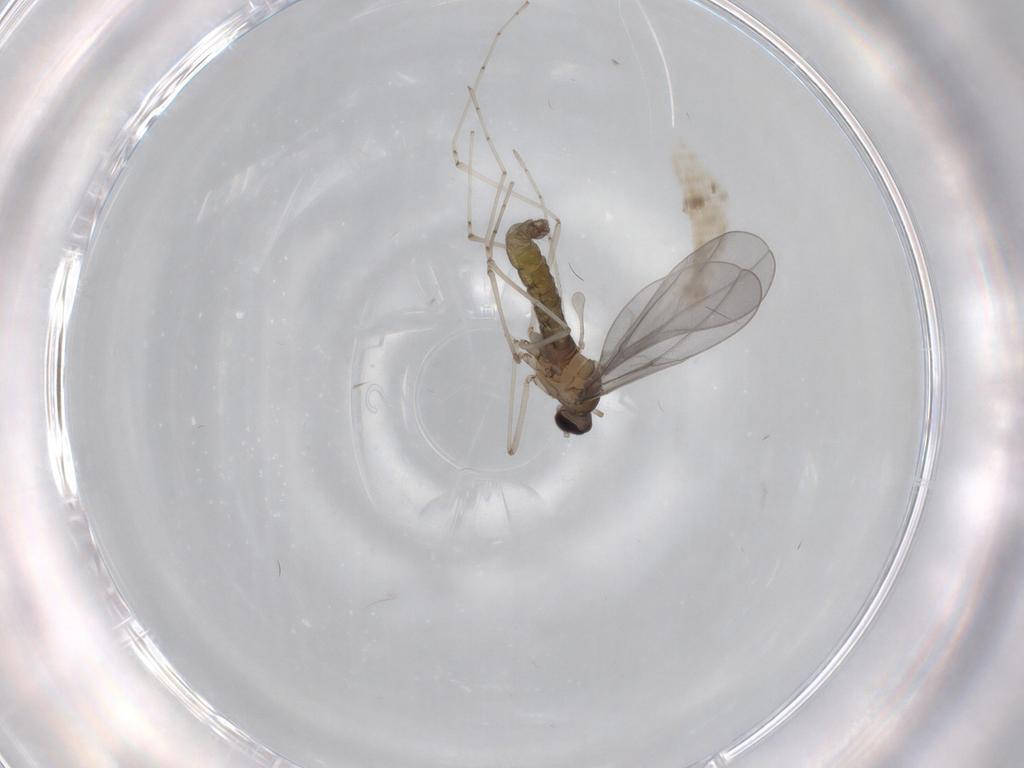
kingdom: Animalia
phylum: Arthropoda
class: Insecta
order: Diptera
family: Cecidomyiidae
